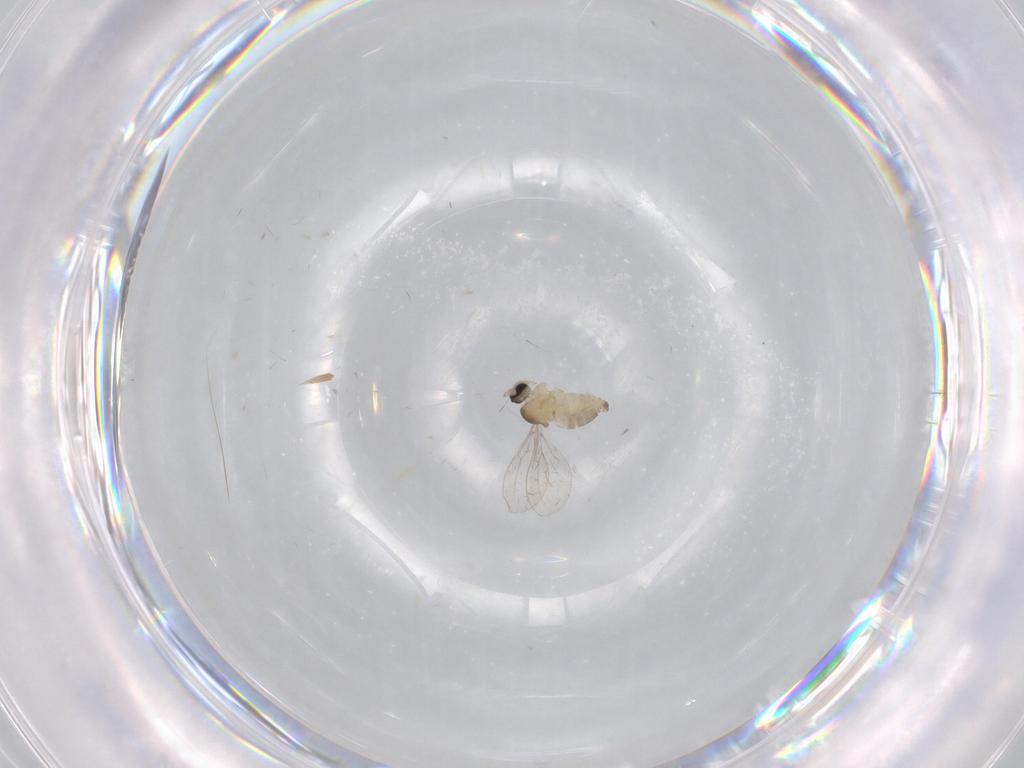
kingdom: Animalia
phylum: Arthropoda
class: Insecta
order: Diptera
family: Cecidomyiidae
